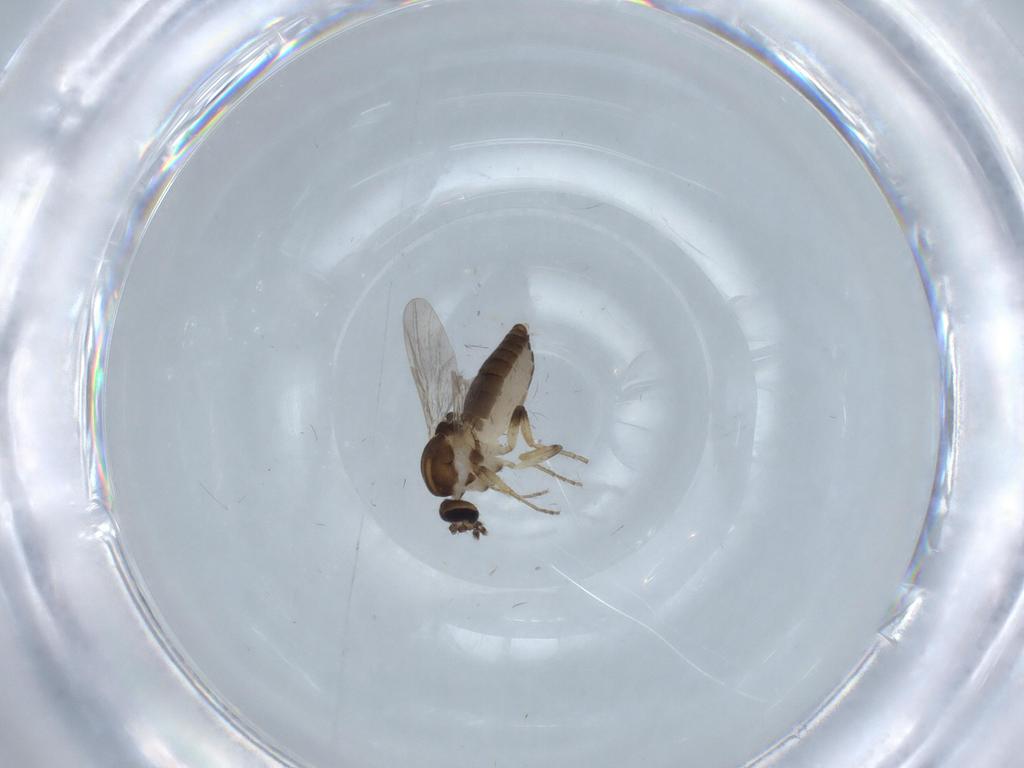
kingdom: Animalia
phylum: Arthropoda
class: Insecta
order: Diptera
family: Ceratopogonidae
